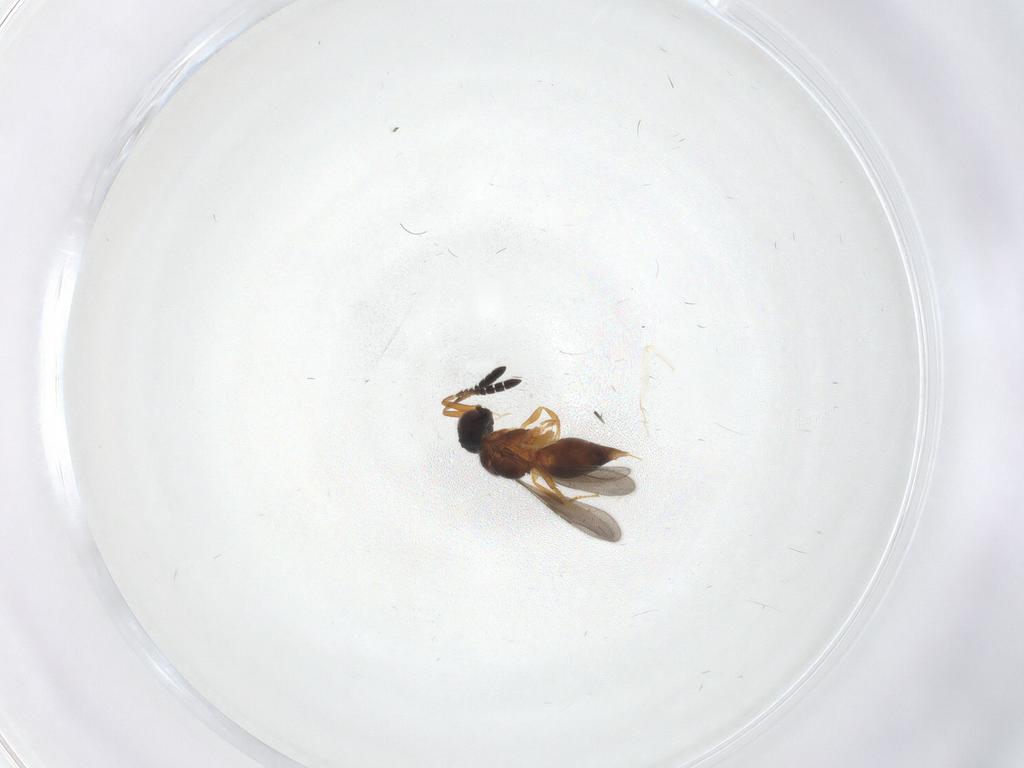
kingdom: Animalia
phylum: Arthropoda
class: Insecta
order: Hymenoptera
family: Ceraphronidae
